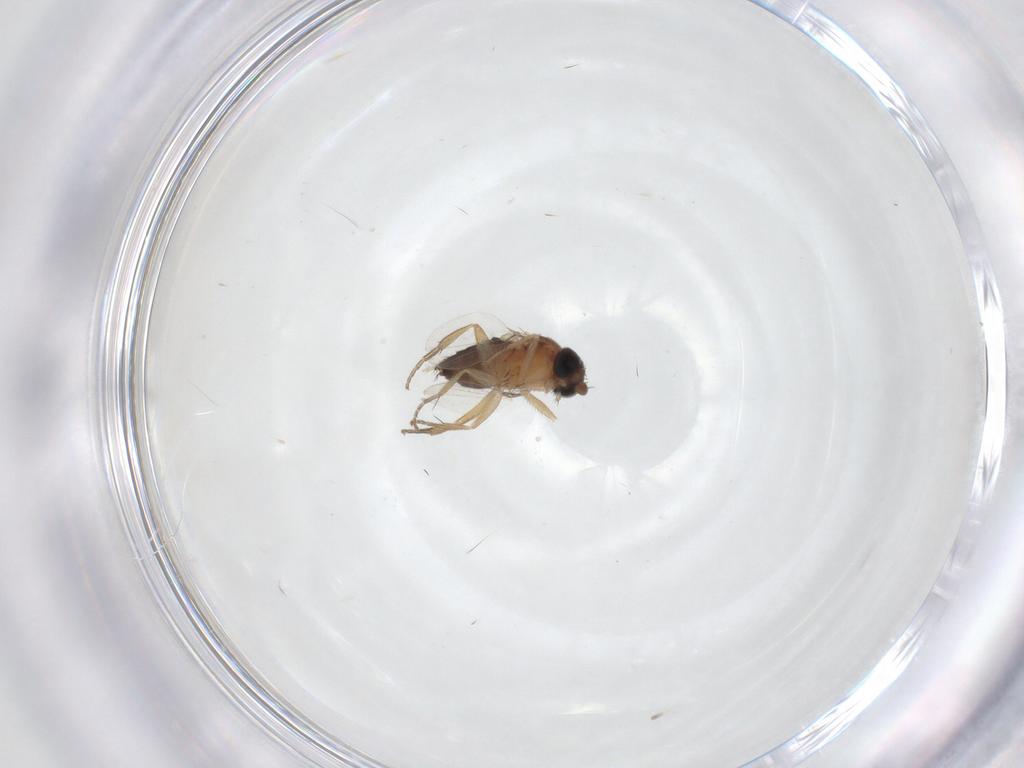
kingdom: Animalia
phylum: Arthropoda
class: Insecta
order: Diptera
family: Phoridae
